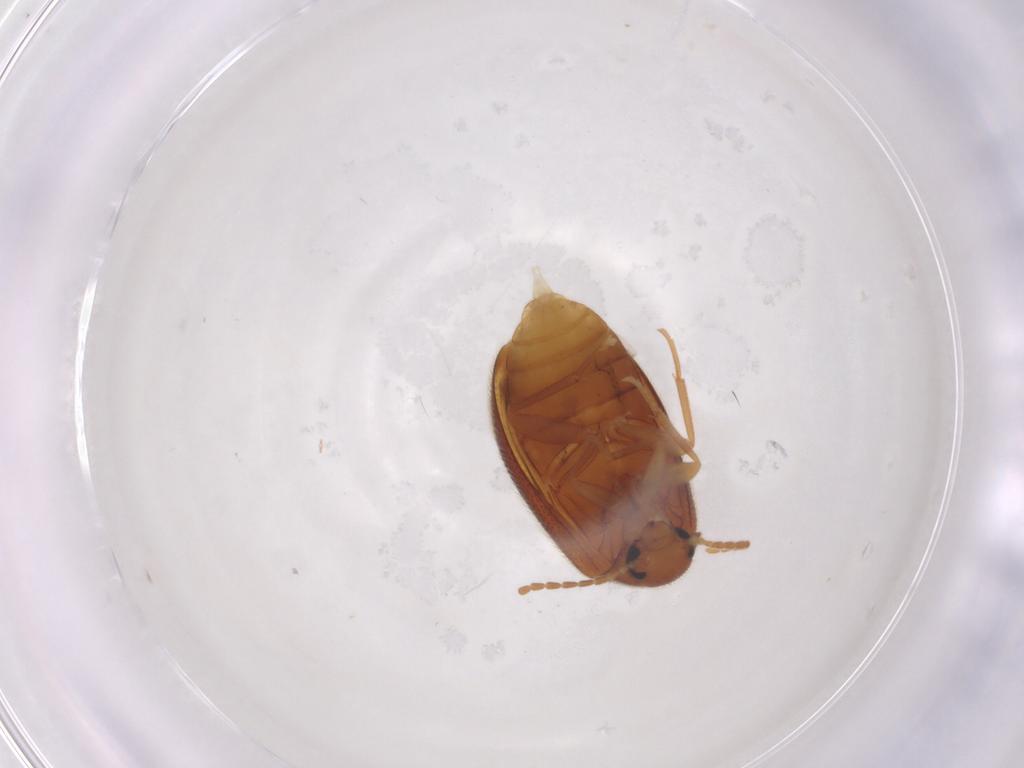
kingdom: Animalia
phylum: Arthropoda
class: Insecta
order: Coleoptera
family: Scraptiidae
